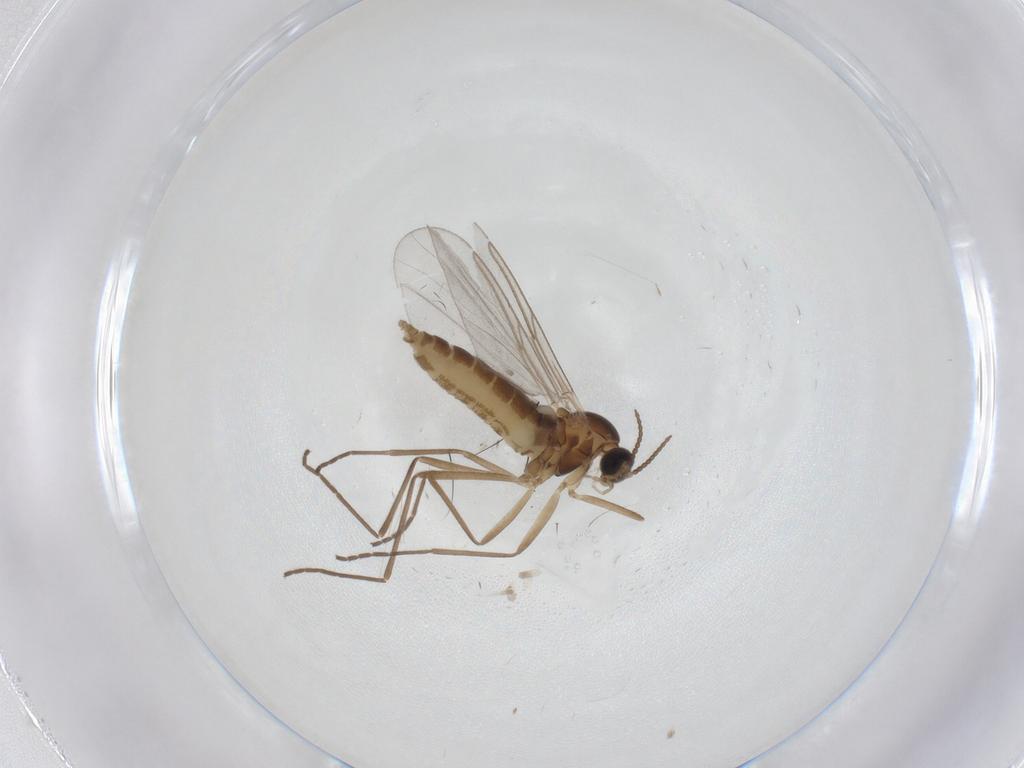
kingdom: Animalia
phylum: Arthropoda
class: Insecta
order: Diptera
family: Cecidomyiidae
